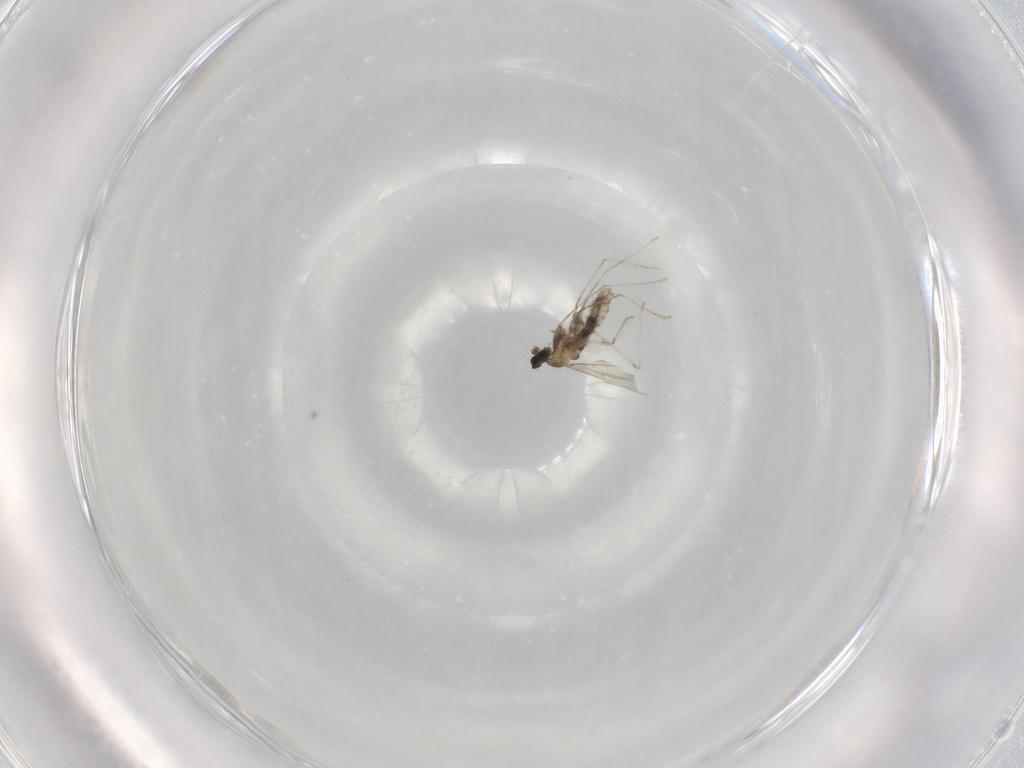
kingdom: Animalia
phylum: Arthropoda
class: Insecta
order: Diptera
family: Cecidomyiidae
